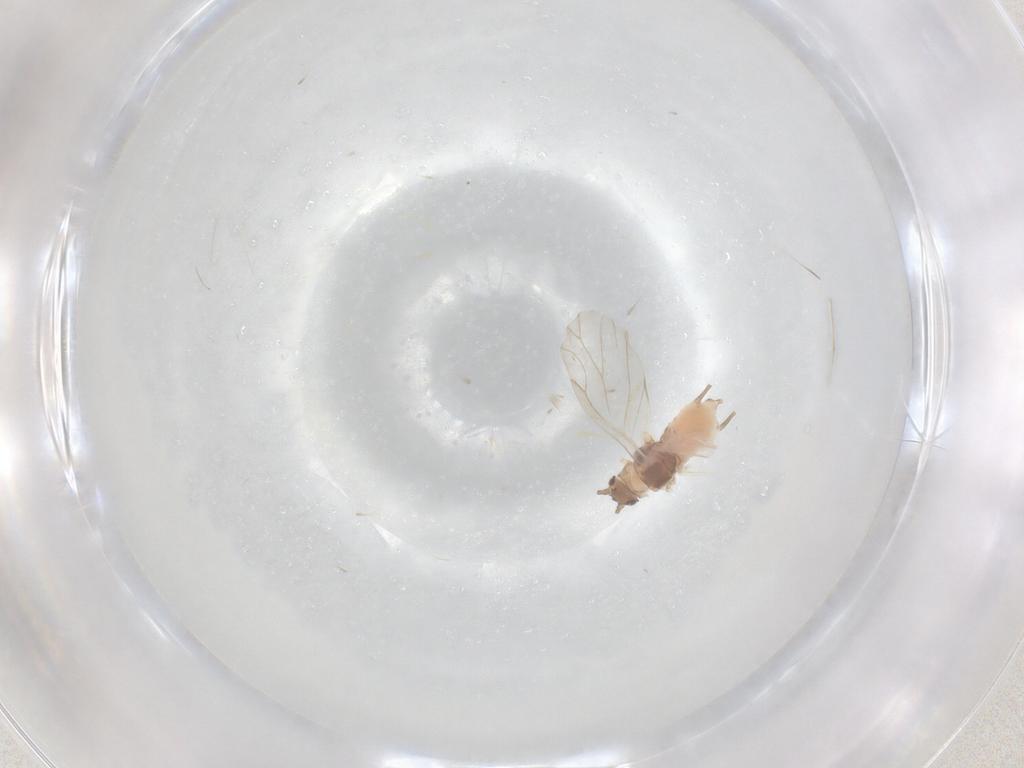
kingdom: Animalia
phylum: Arthropoda
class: Insecta
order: Hemiptera
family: Aphididae
